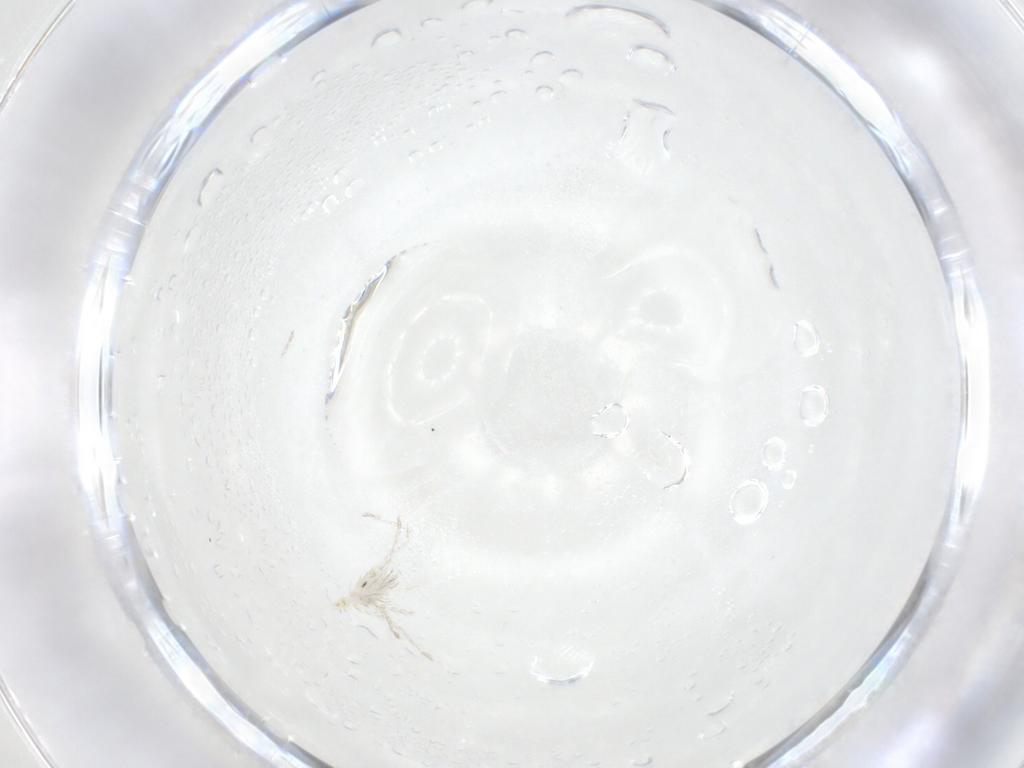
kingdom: Animalia
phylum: Arthropoda
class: Arachnida
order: Trombidiformes
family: Erythraeidae
